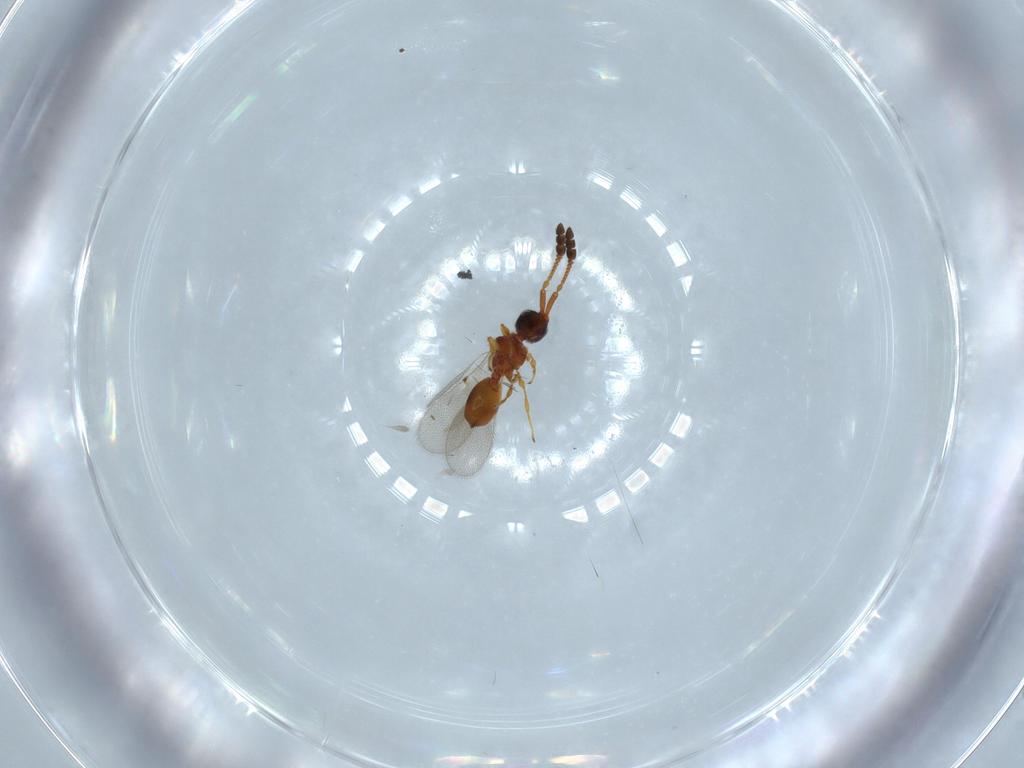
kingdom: Animalia
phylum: Arthropoda
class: Insecta
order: Hymenoptera
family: Diapriidae
